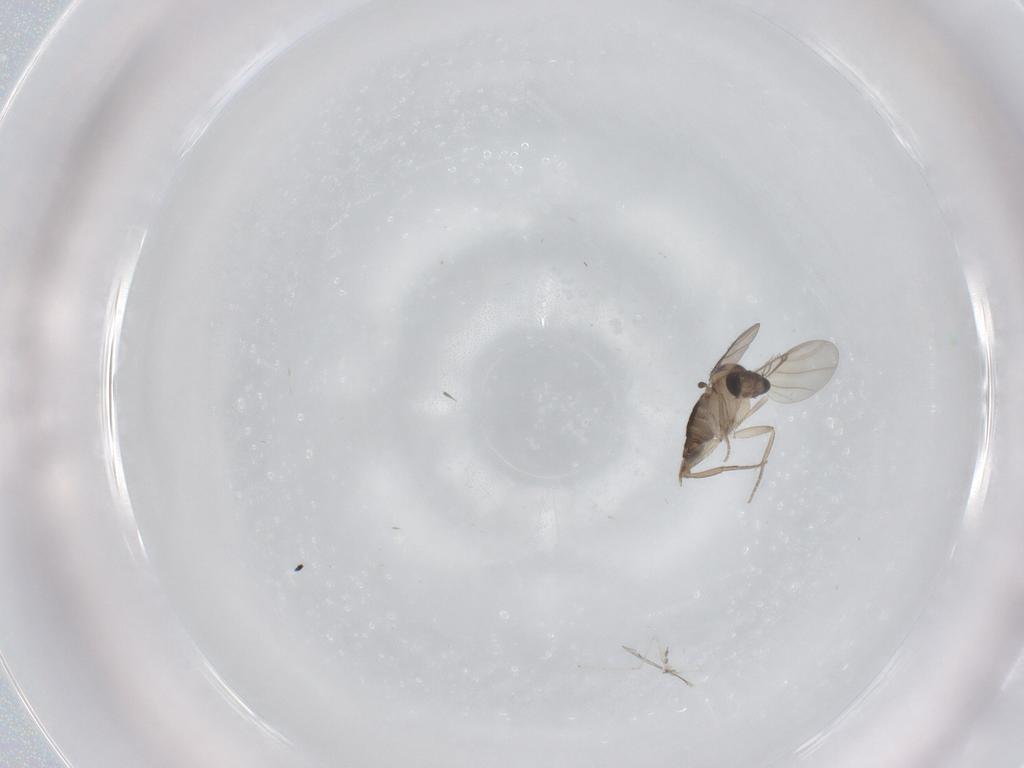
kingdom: Animalia
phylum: Arthropoda
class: Insecta
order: Diptera
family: Phoridae
